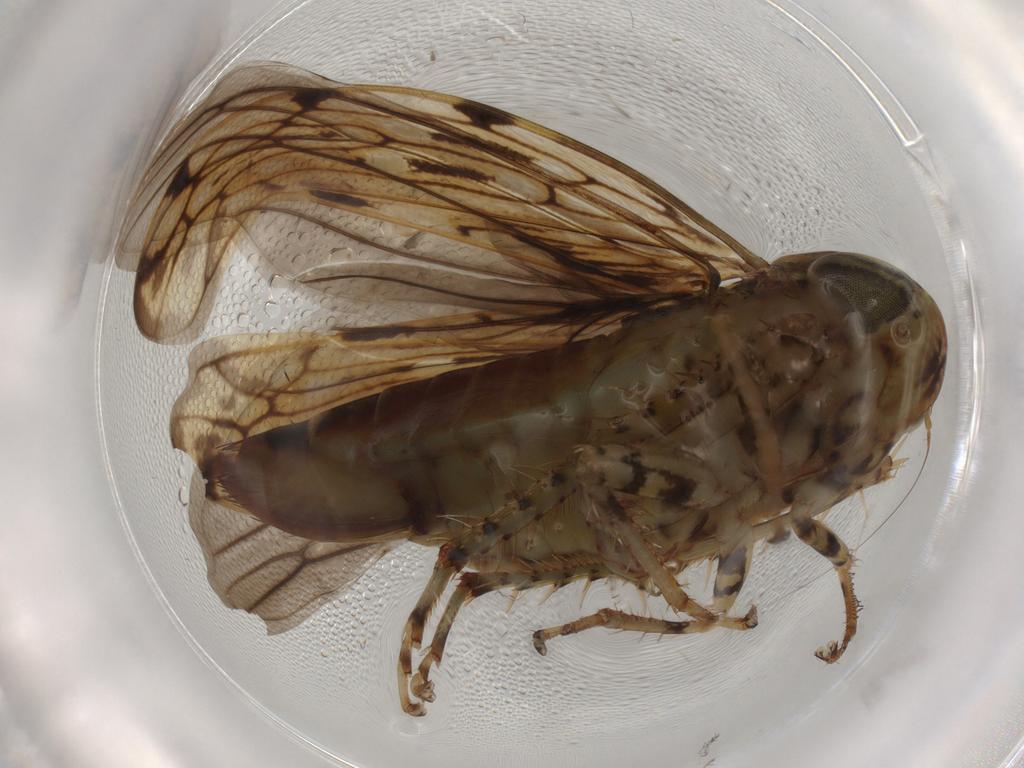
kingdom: Animalia
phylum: Arthropoda
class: Insecta
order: Hemiptera
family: Cicadellidae
